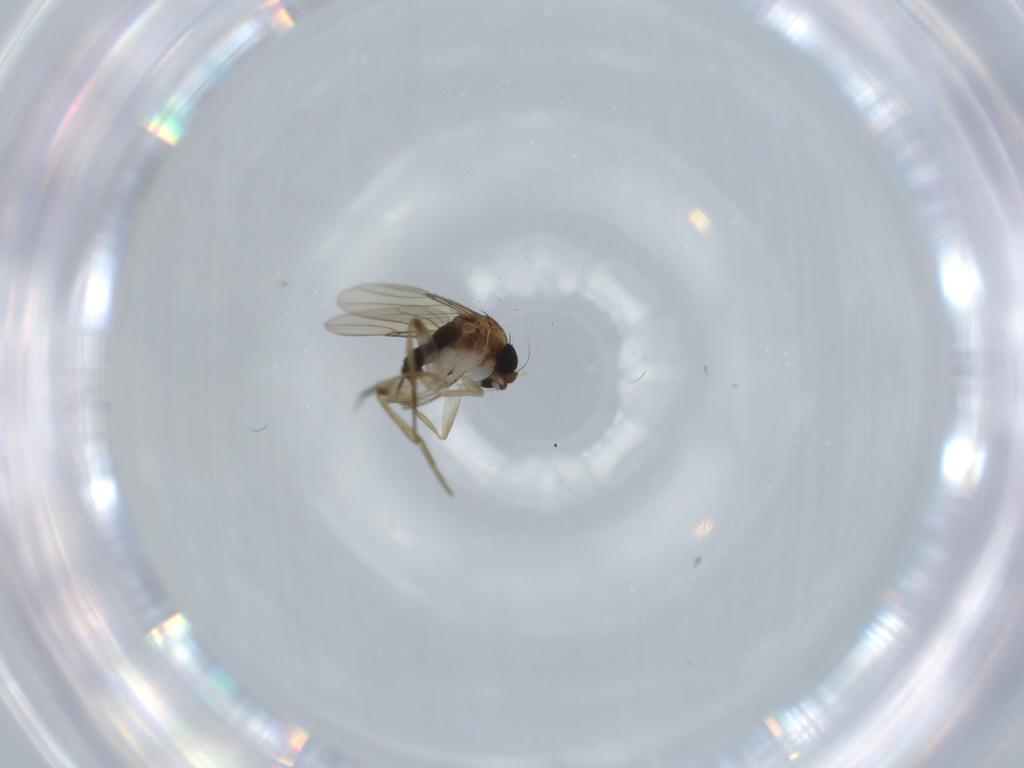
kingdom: Animalia
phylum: Arthropoda
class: Insecta
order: Diptera
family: Phoridae
